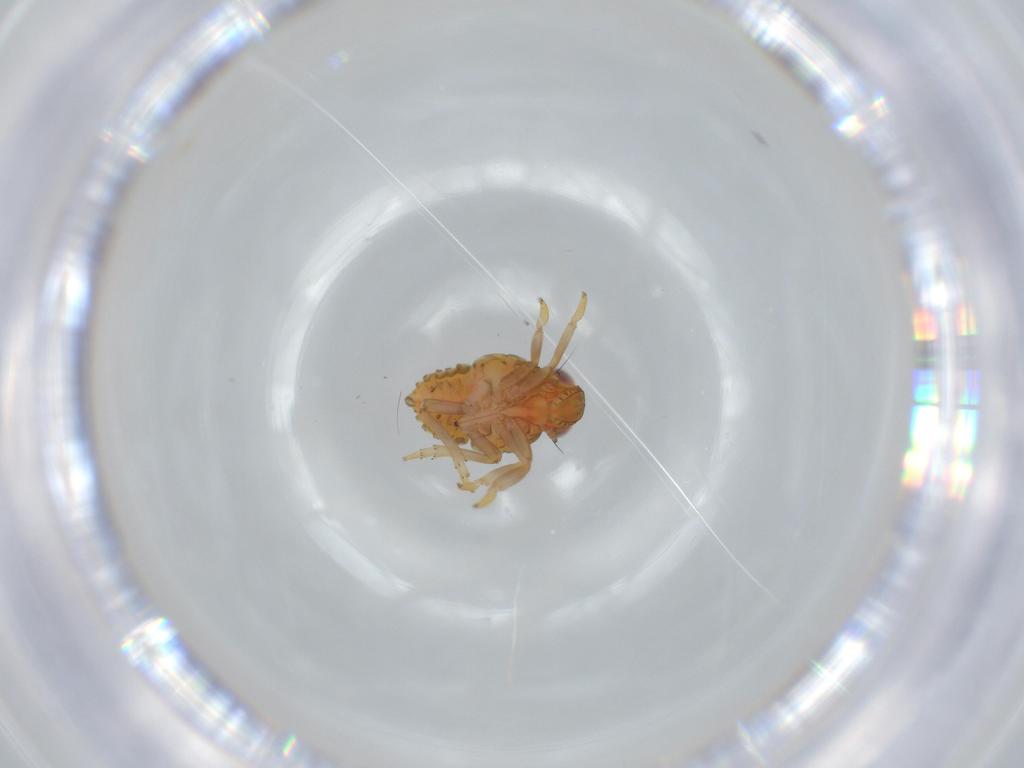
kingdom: Animalia
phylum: Arthropoda
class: Insecta
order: Hemiptera
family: Issidae
